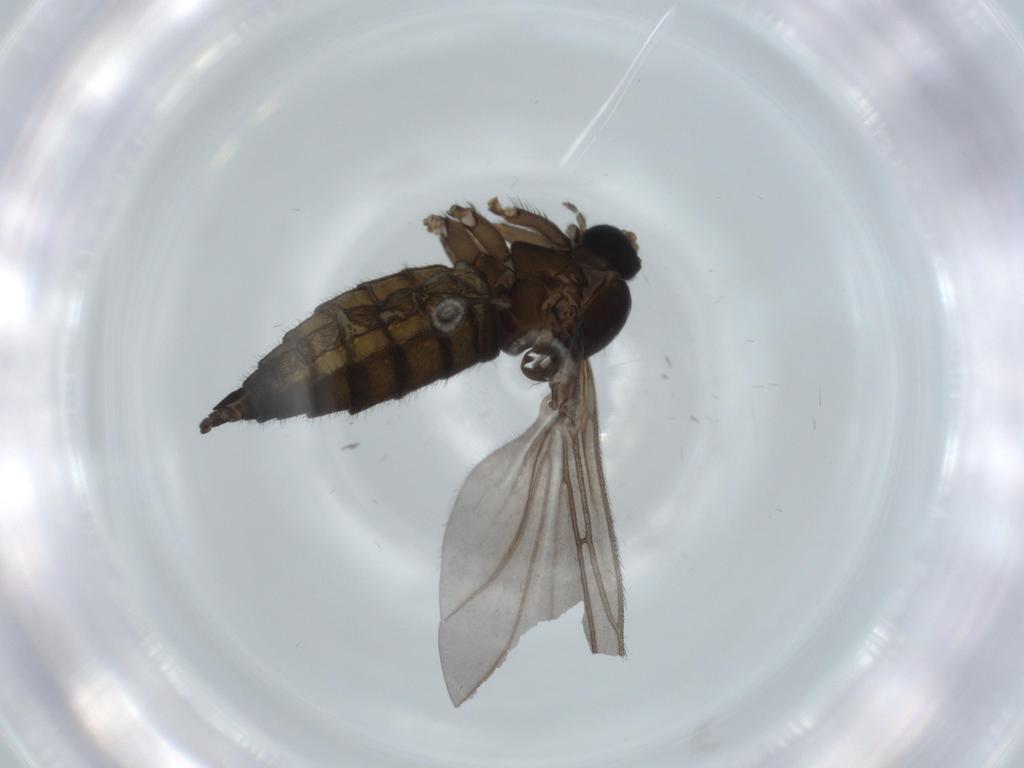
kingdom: Animalia
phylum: Arthropoda
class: Insecta
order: Diptera
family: Sciaridae
